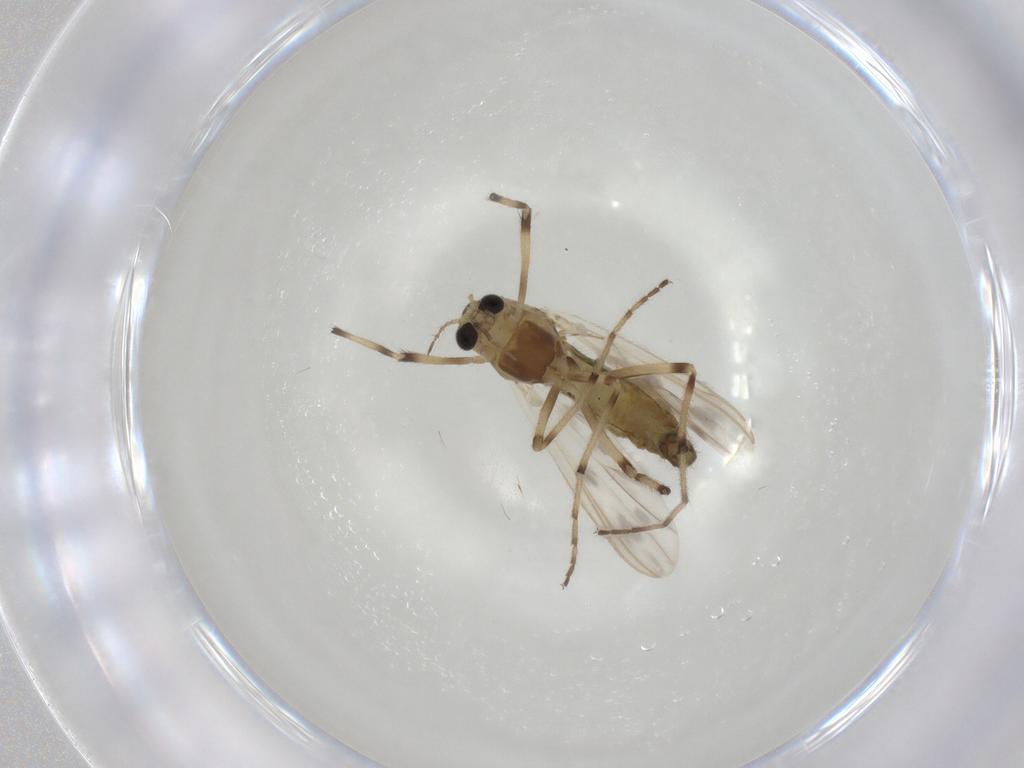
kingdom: Animalia
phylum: Arthropoda
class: Insecta
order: Diptera
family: Chironomidae
